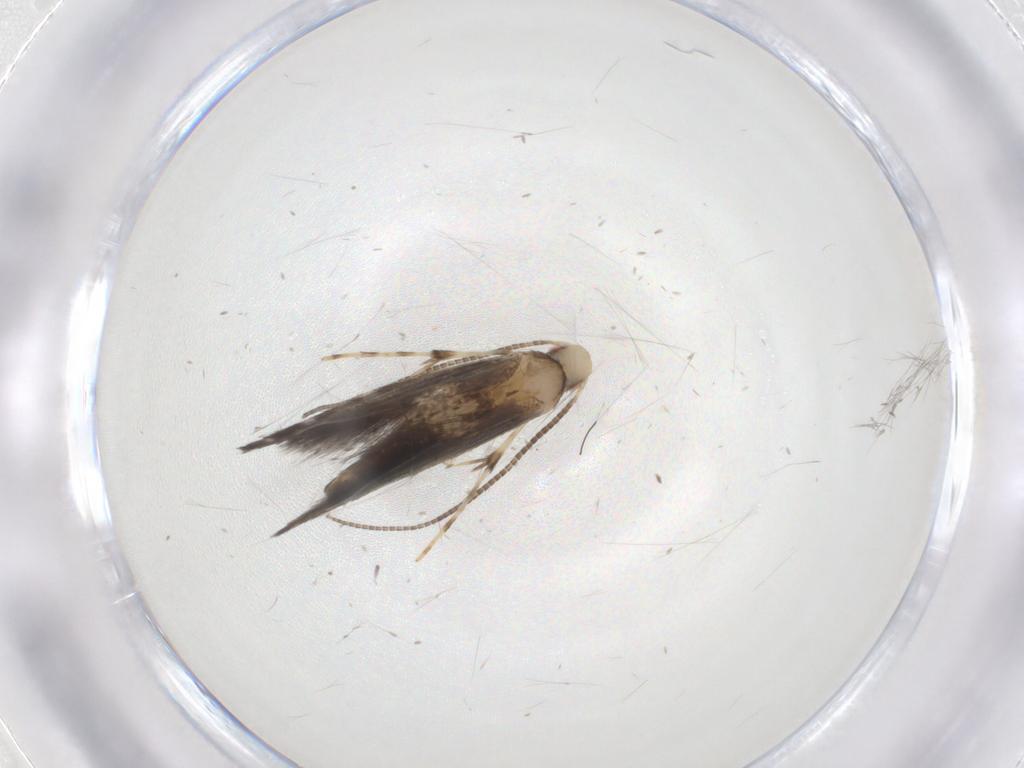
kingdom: Animalia
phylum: Arthropoda
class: Insecta
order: Lepidoptera
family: Gracillariidae
